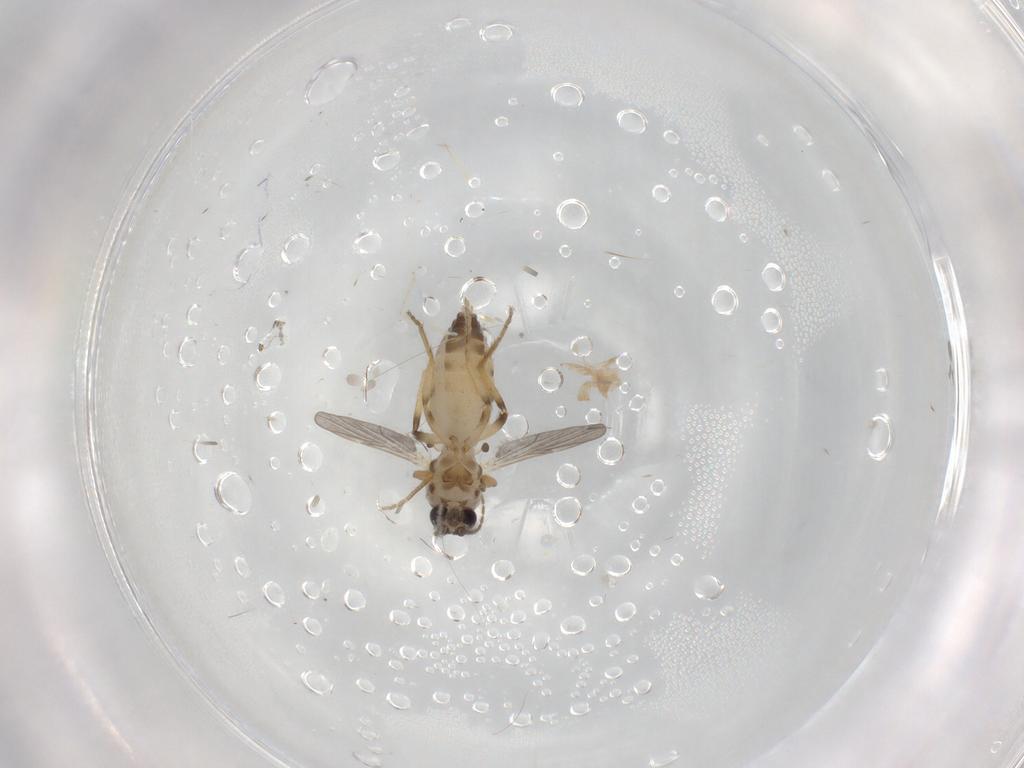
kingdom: Animalia
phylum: Arthropoda
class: Insecta
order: Diptera
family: Ceratopogonidae
